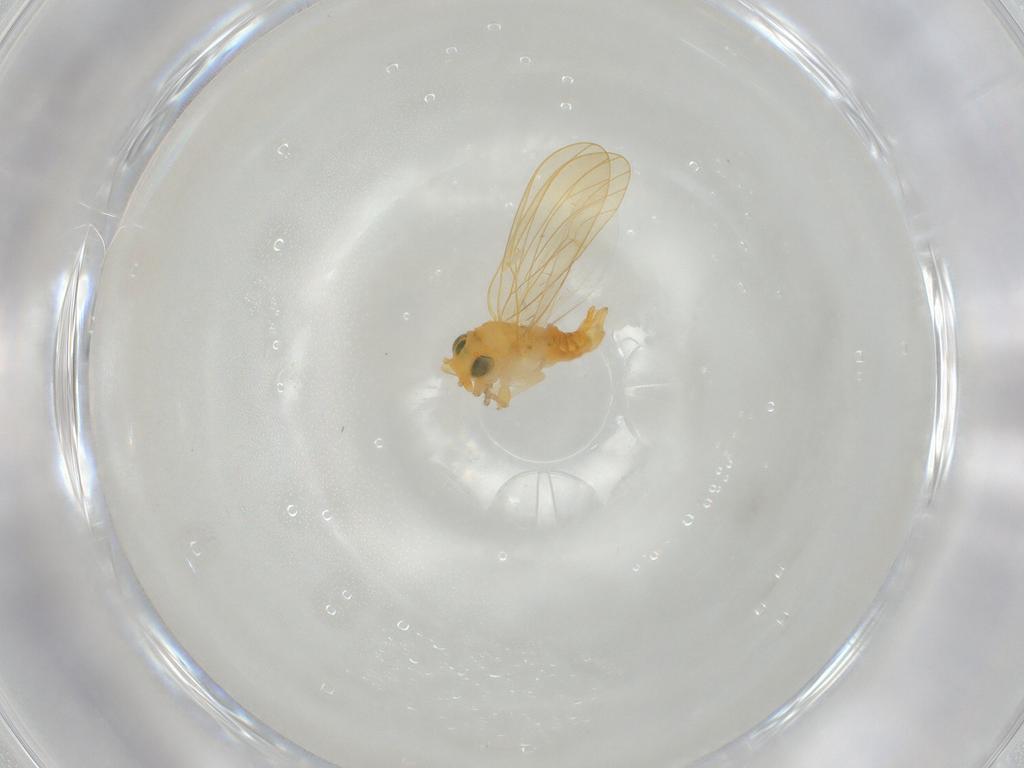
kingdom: Animalia
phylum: Arthropoda
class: Insecta
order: Hemiptera
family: Aphalaridae
